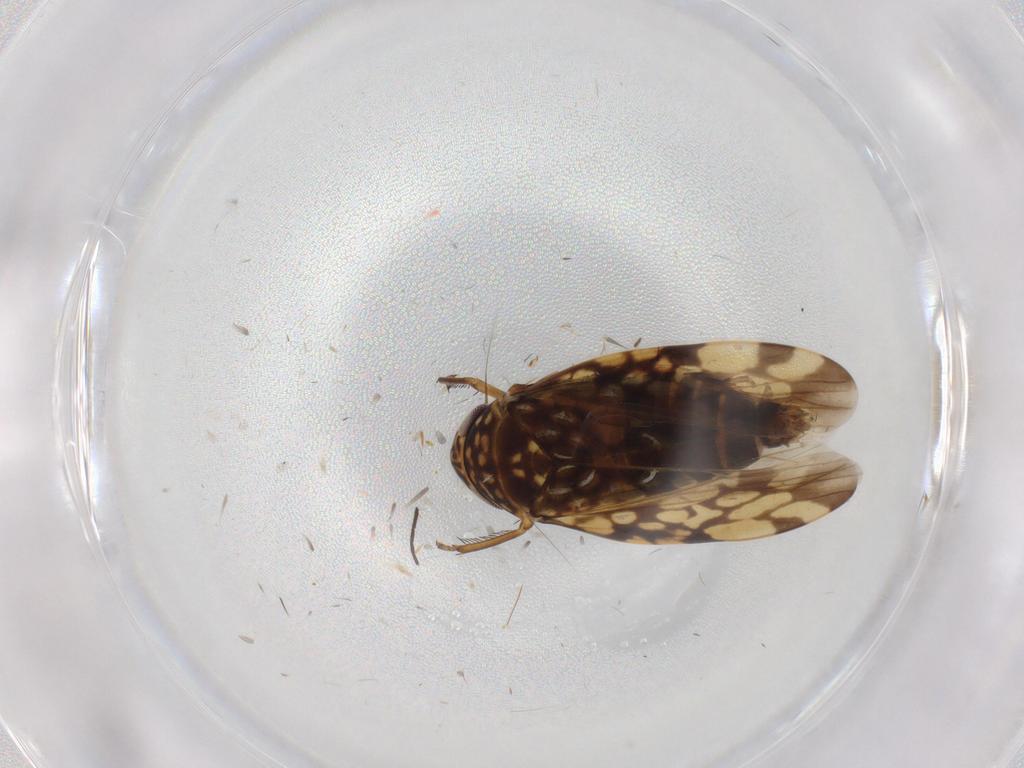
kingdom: Animalia
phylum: Arthropoda
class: Insecta
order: Hemiptera
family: Cicadellidae
